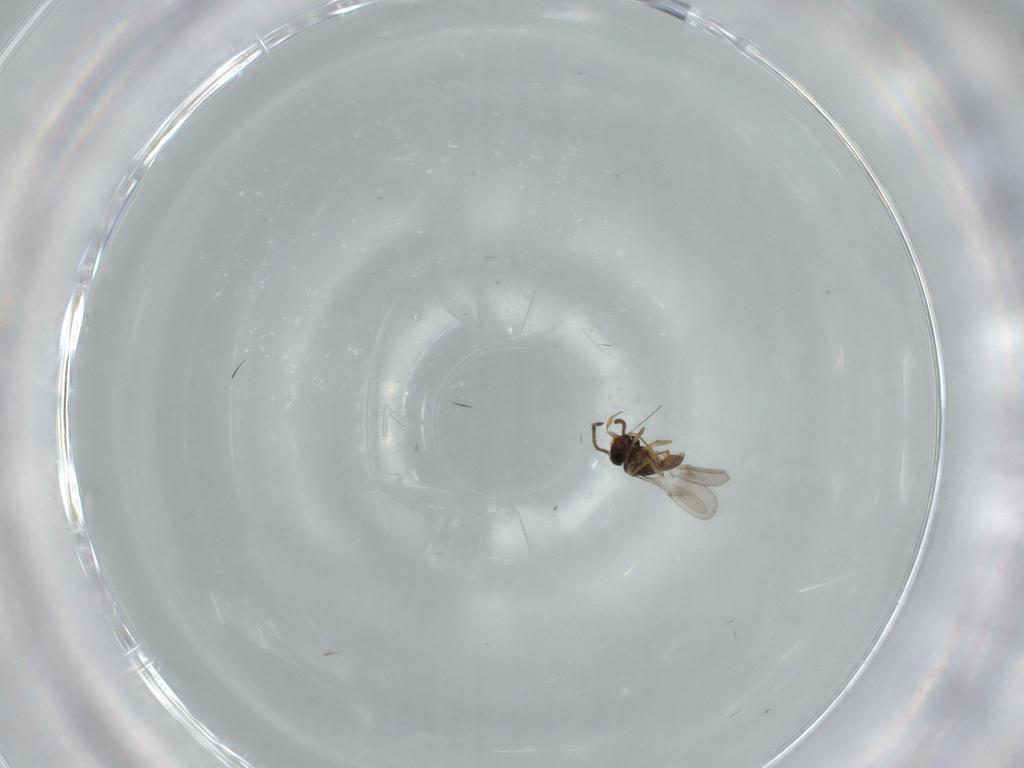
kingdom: Animalia
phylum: Arthropoda
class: Insecta
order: Hymenoptera
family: Scelionidae
